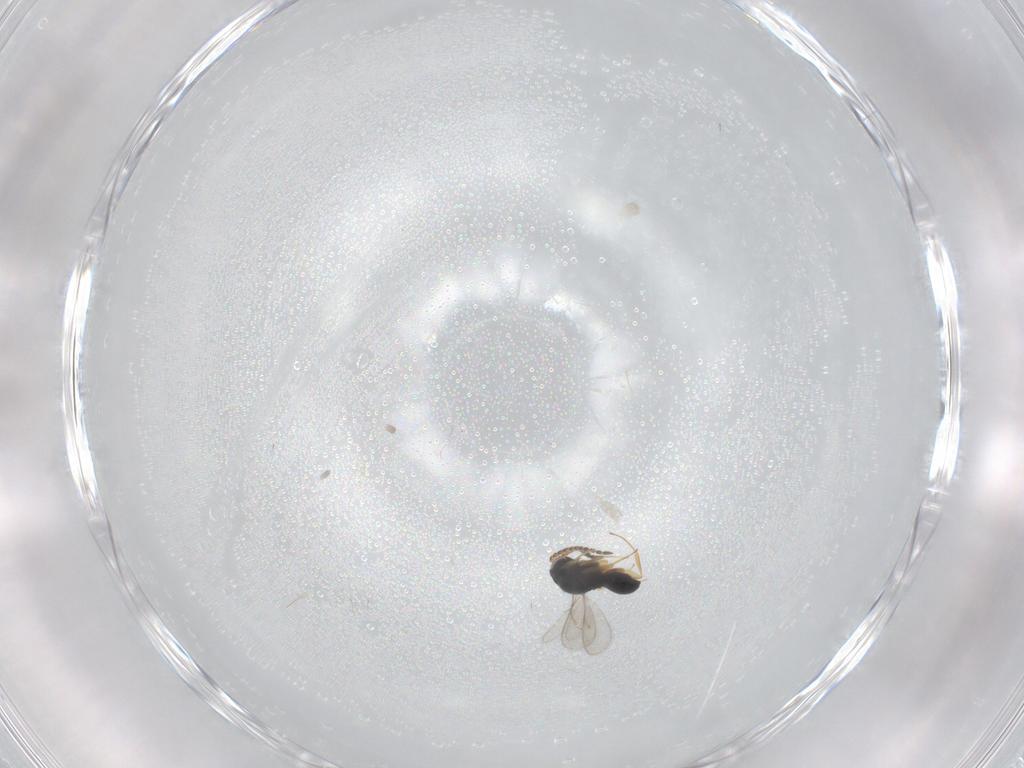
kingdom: Animalia
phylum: Arthropoda
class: Insecta
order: Hymenoptera
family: Scelionidae
